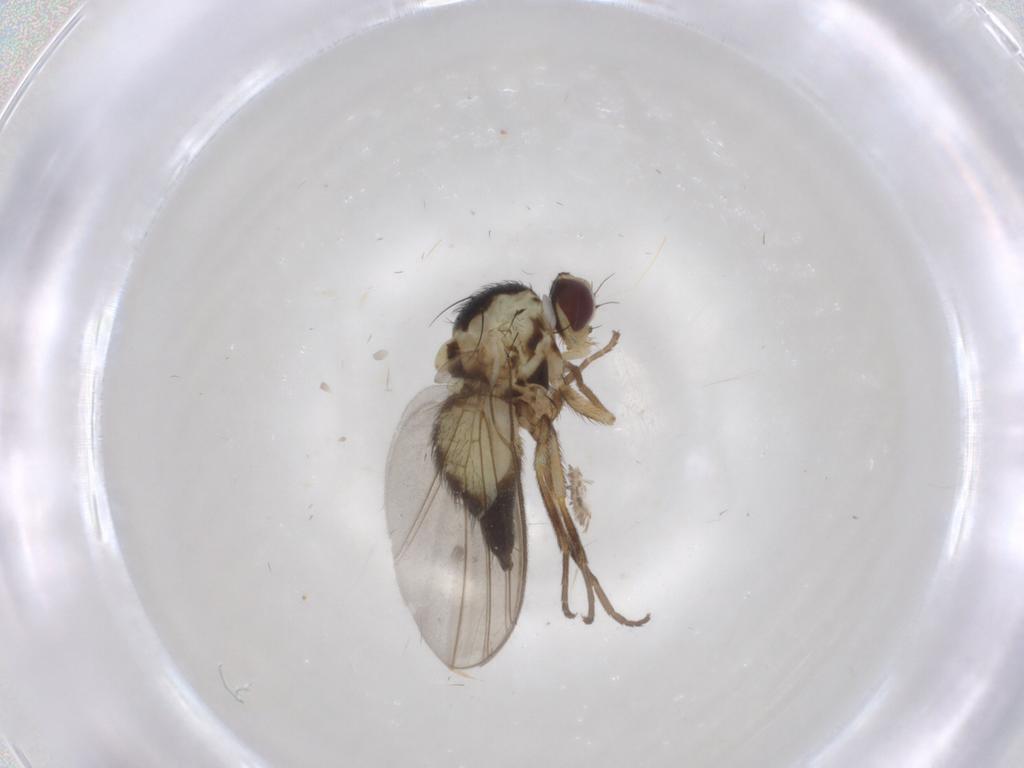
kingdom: Animalia
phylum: Arthropoda
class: Insecta
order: Diptera
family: Agromyzidae
